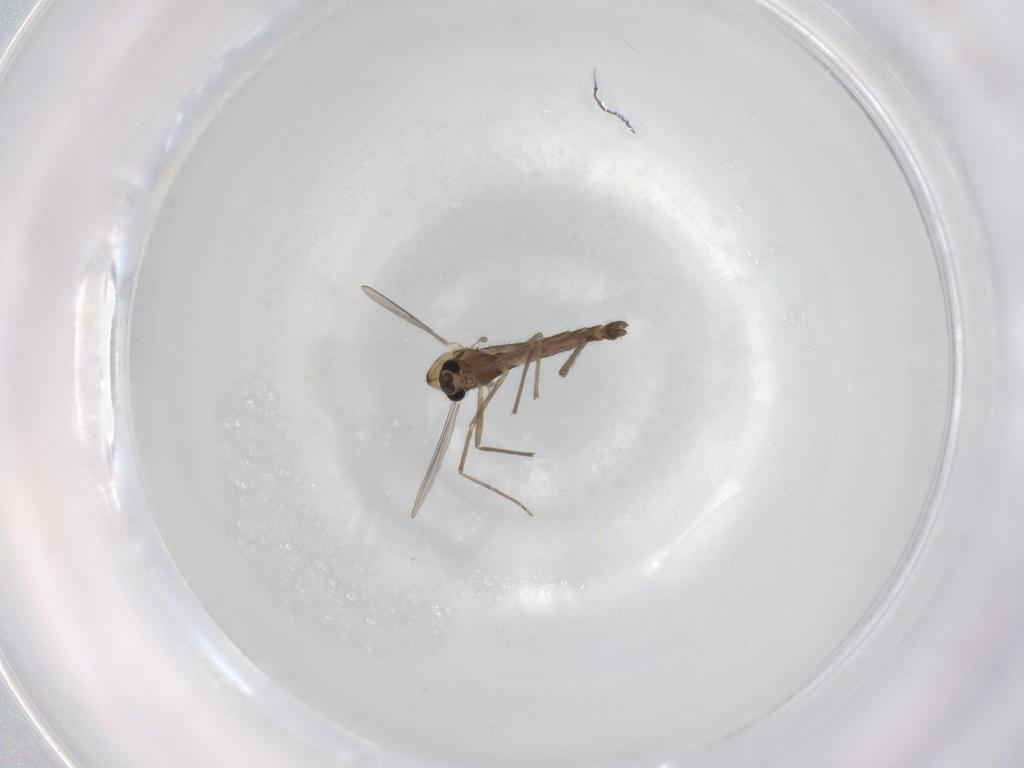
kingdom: Animalia
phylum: Arthropoda
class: Insecta
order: Diptera
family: Chironomidae
